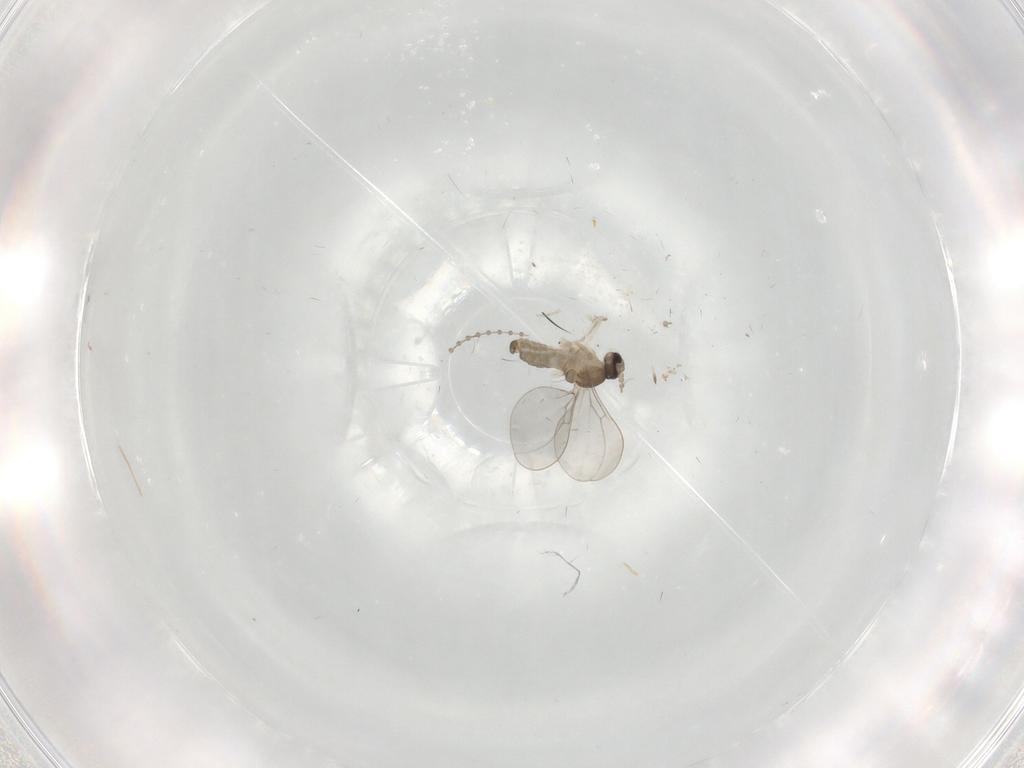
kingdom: Animalia
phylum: Arthropoda
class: Insecta
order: Diptera
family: Cecidomyiidae
